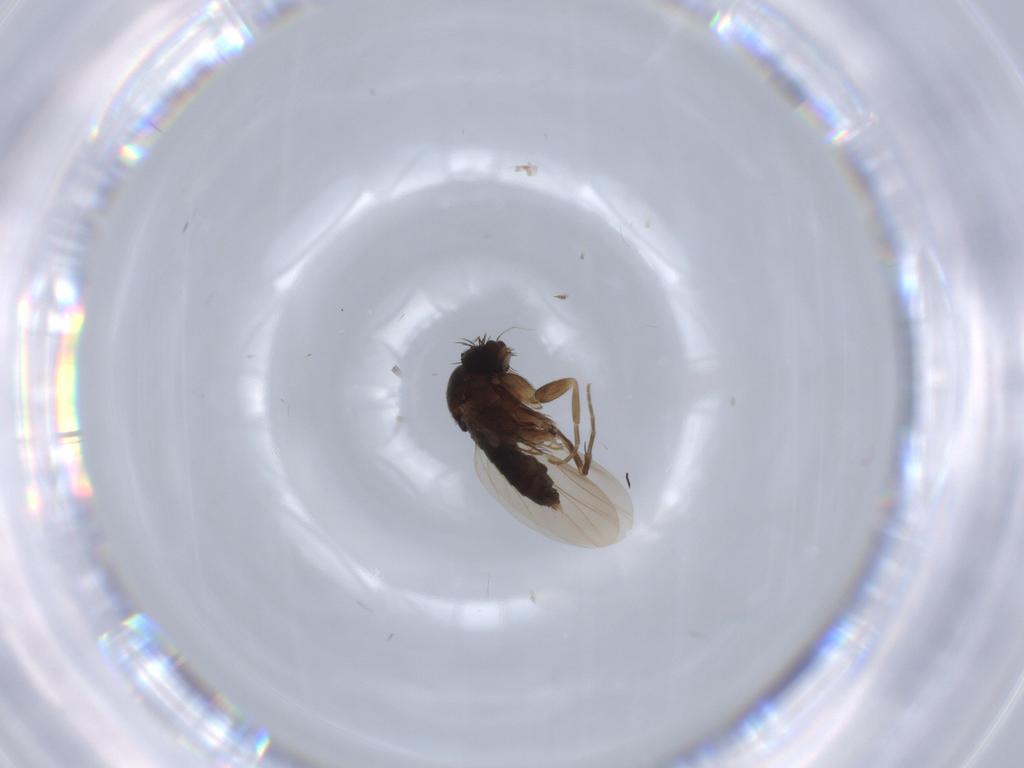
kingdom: Animalia
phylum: Arthropoda
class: Insecta
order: Diptera
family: Phoridae
